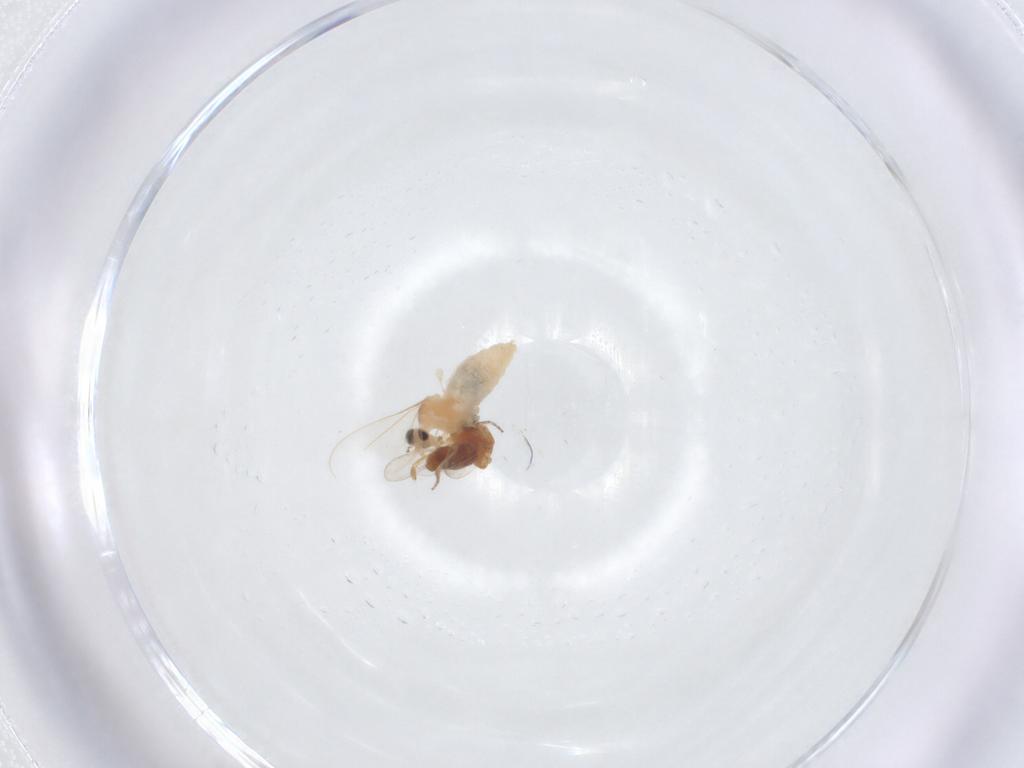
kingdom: Animalia
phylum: Arthropoda
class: Insecta
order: Diptera
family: Cecidomyiidae
